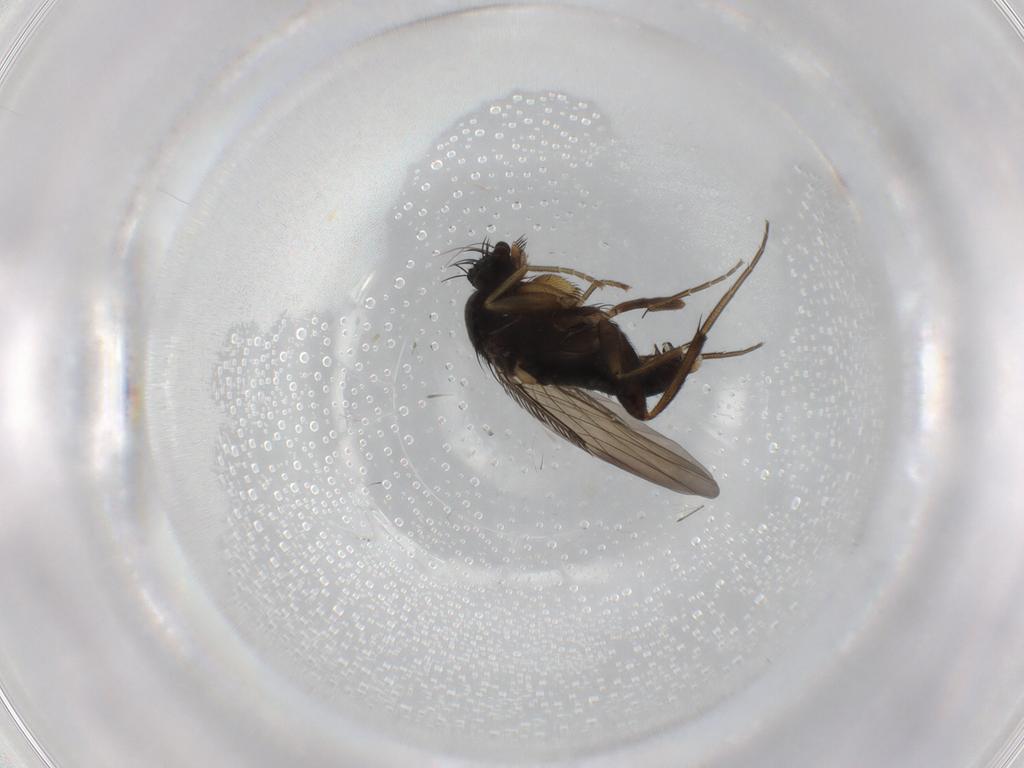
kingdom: Animalia
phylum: Arthropoda
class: Insecta
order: Diptera
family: Phoridae
